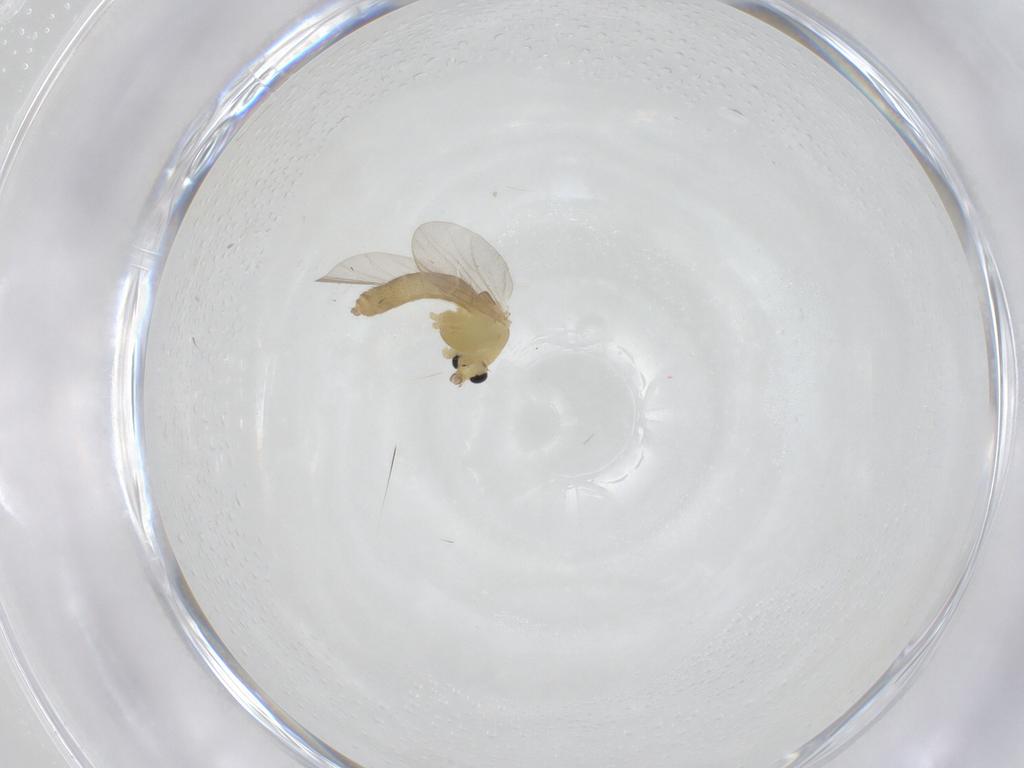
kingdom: Animalia
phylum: Arthropoda
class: Insecta
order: Diptera
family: Chironomidae
